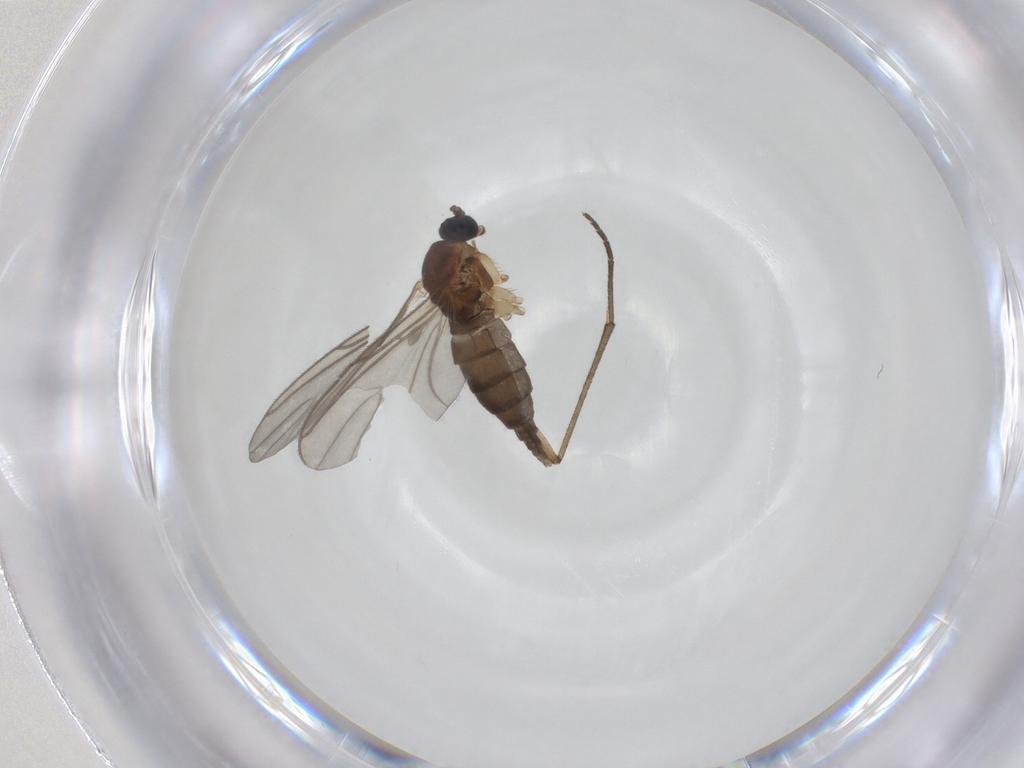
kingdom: Animalia
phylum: Arthropoda
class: Insecta
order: Diptera
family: Sciaridae
